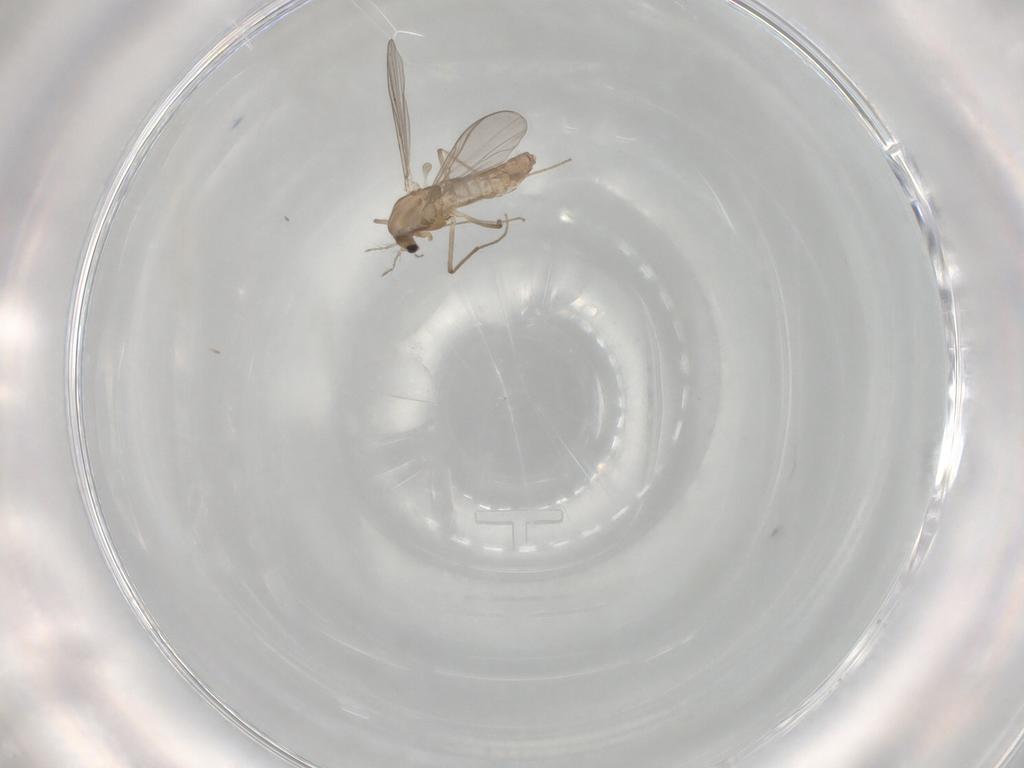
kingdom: Animalia
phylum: Arthropoda
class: Insecta
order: Diptera
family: Chironomidae
